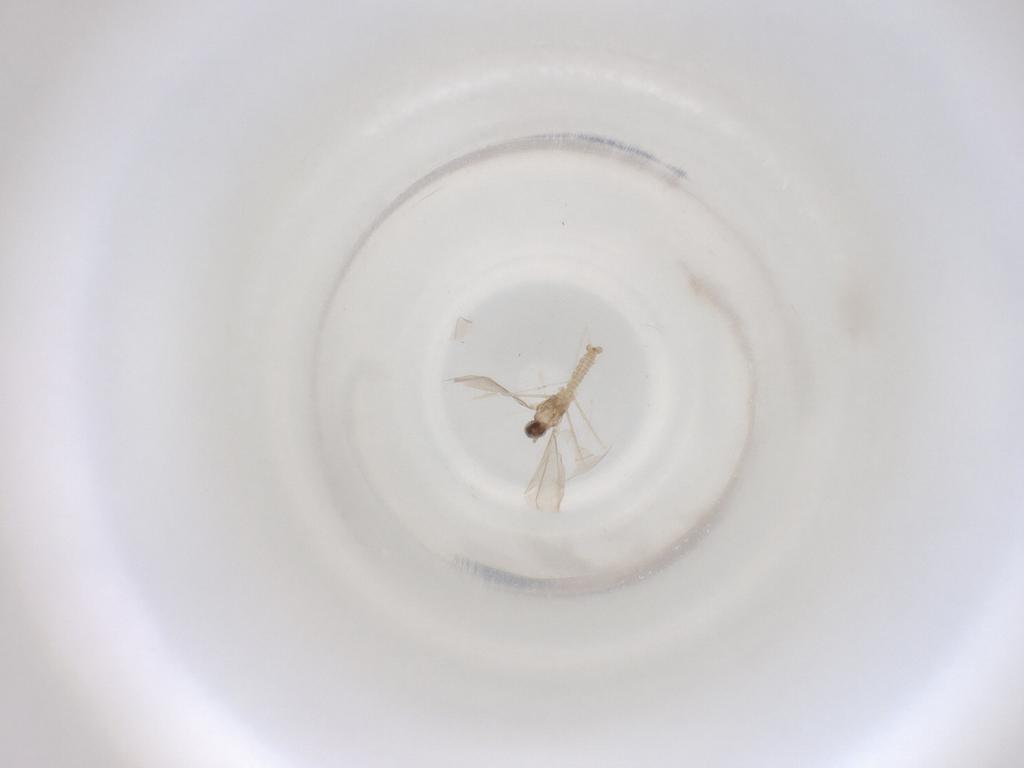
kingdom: Animalia
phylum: Arthropoda
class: Insecta
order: Diptera
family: Cecidomyiidae
